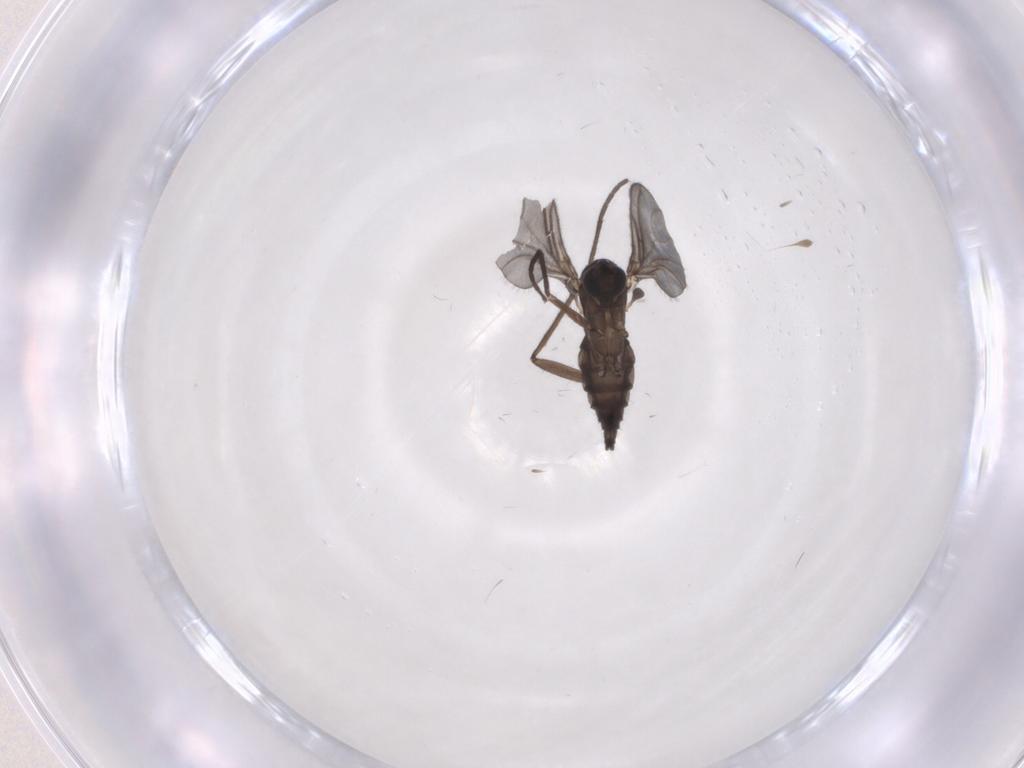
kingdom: Animalia
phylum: Arthropoda
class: Insecta
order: Diptera
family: Sciaridae
